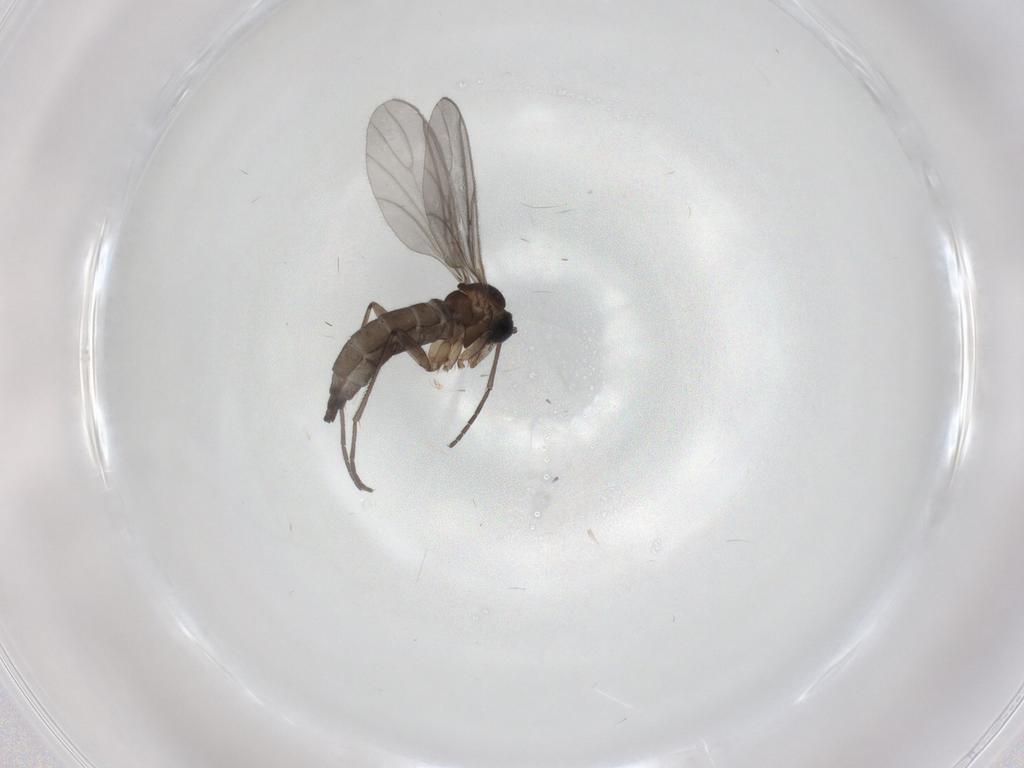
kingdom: Animalia
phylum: Arthropoda
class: Insecta
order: Diptera
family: Sciaridae
